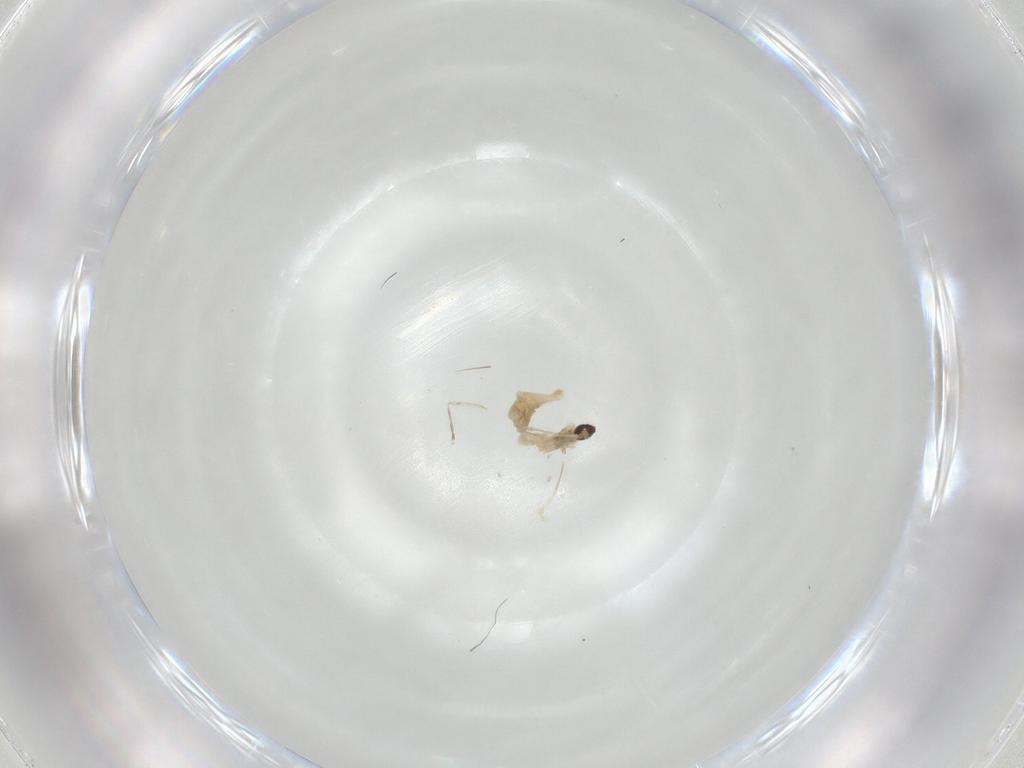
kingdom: Animalia
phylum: Arthropoda
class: Insecta
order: Diptera
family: Cecidomyiidae
